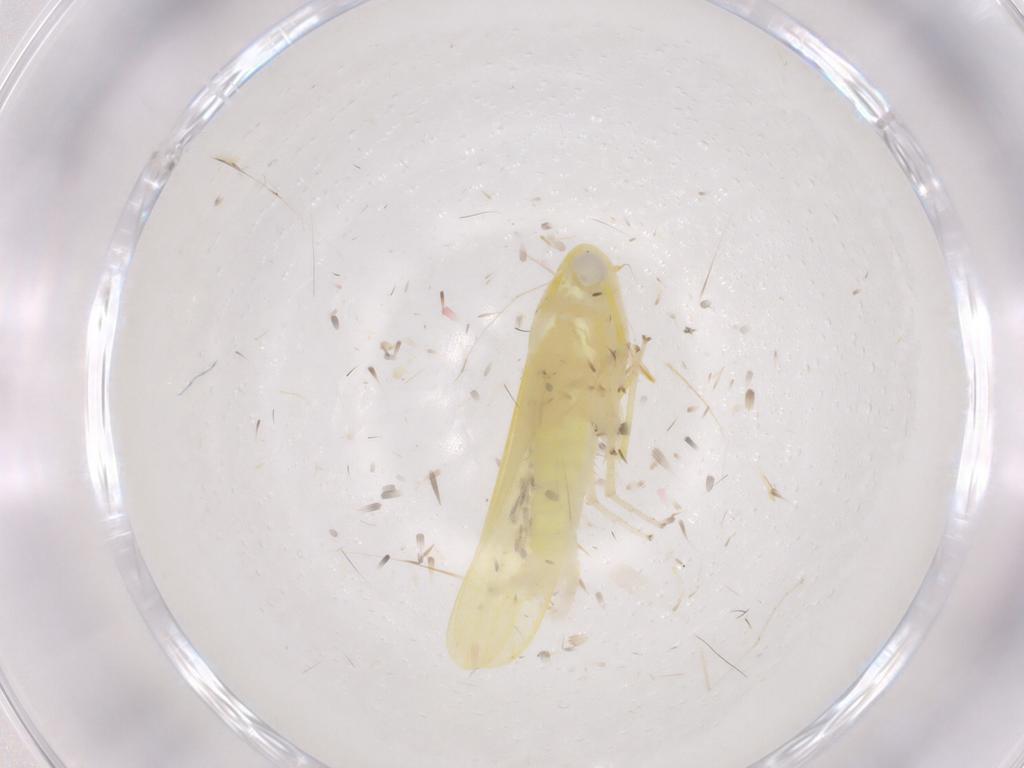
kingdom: Animalia
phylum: Arthropoda
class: Insecta
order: Hemiptera
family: Cicadellidae
